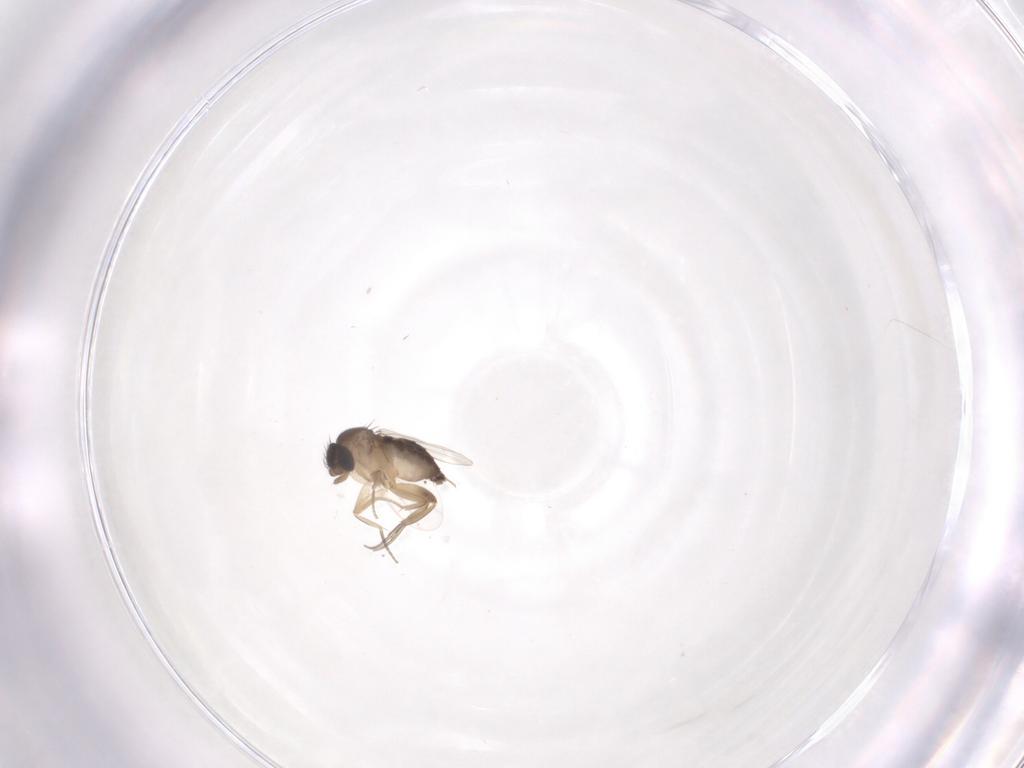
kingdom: Animalia
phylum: Arthropoda
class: Insecta
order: Diptera
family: Phoridae
